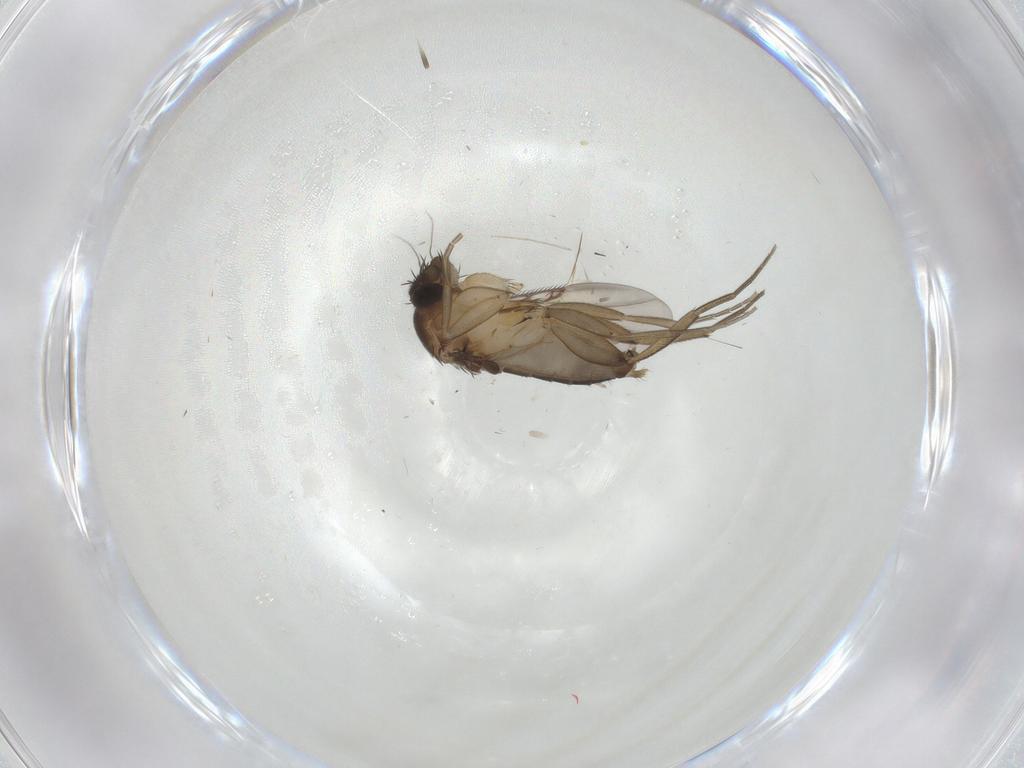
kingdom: Animalia
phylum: Arthropoda
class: Insecta
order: Diptera
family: Phoridae
